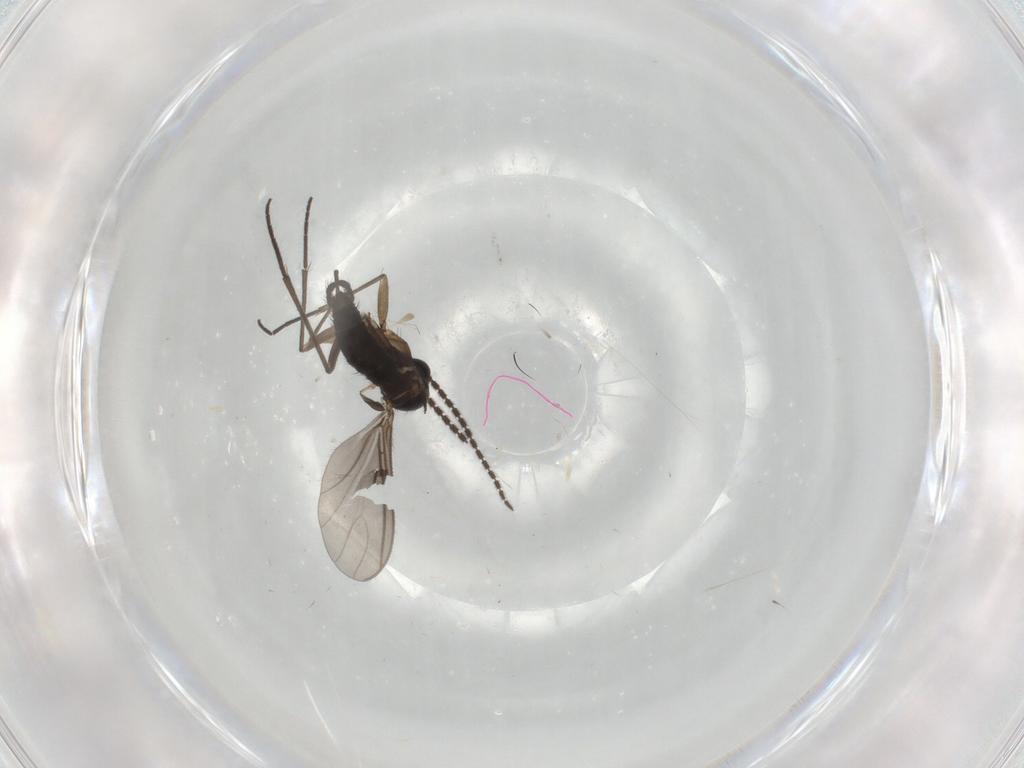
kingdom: Animalia
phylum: Arthropoda
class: Insecta
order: Diptera
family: Sciaridae
